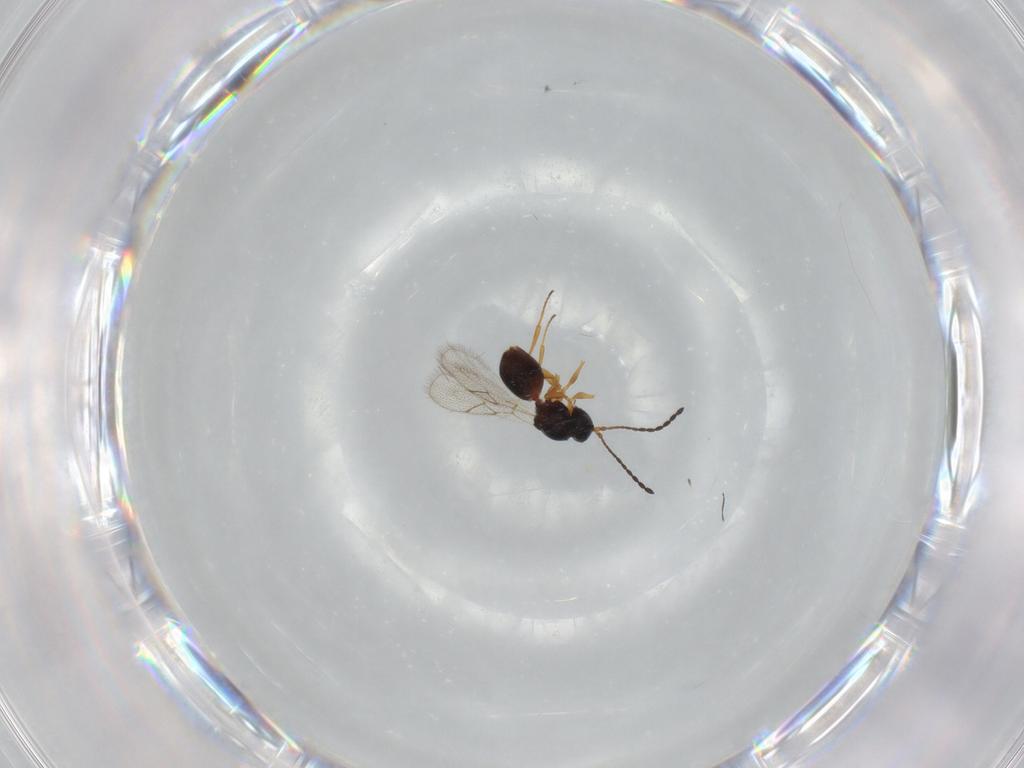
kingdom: Animalia
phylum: Arthropoda
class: Insecta
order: Hymenoptera
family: Figitidae
